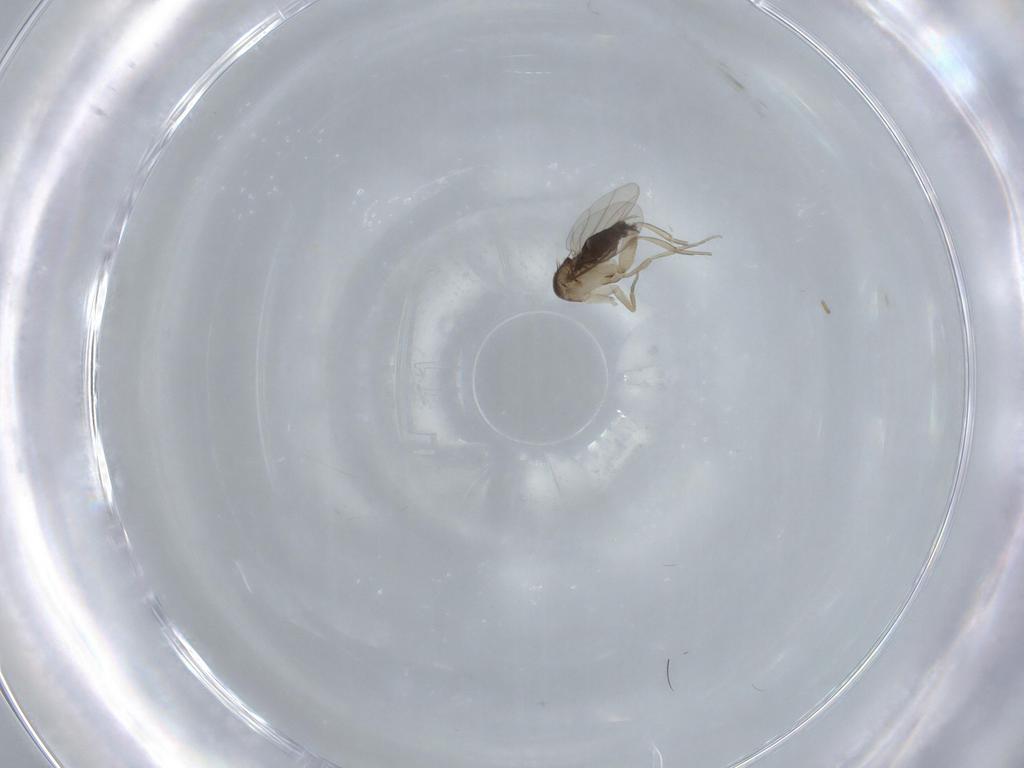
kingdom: Animalia
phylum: Arthropoda
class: Insecta
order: Diptera
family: Phoridae
